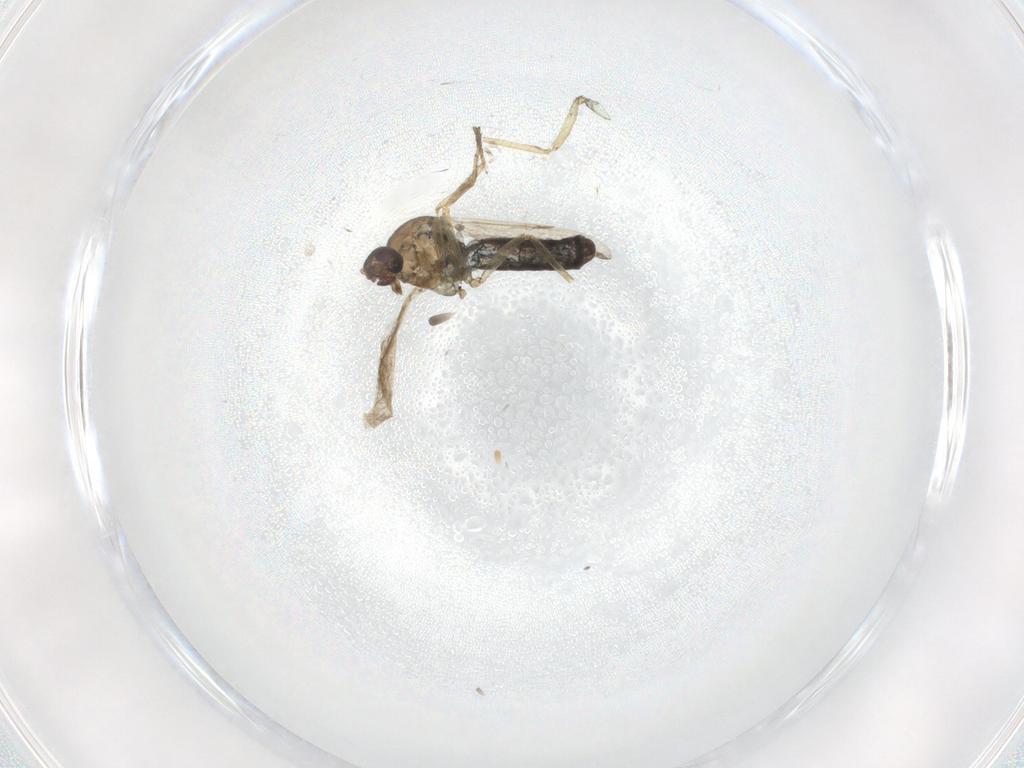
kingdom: Animalia
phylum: Arthropoda
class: Insecta
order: Diptera
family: Ceratopogonidae
